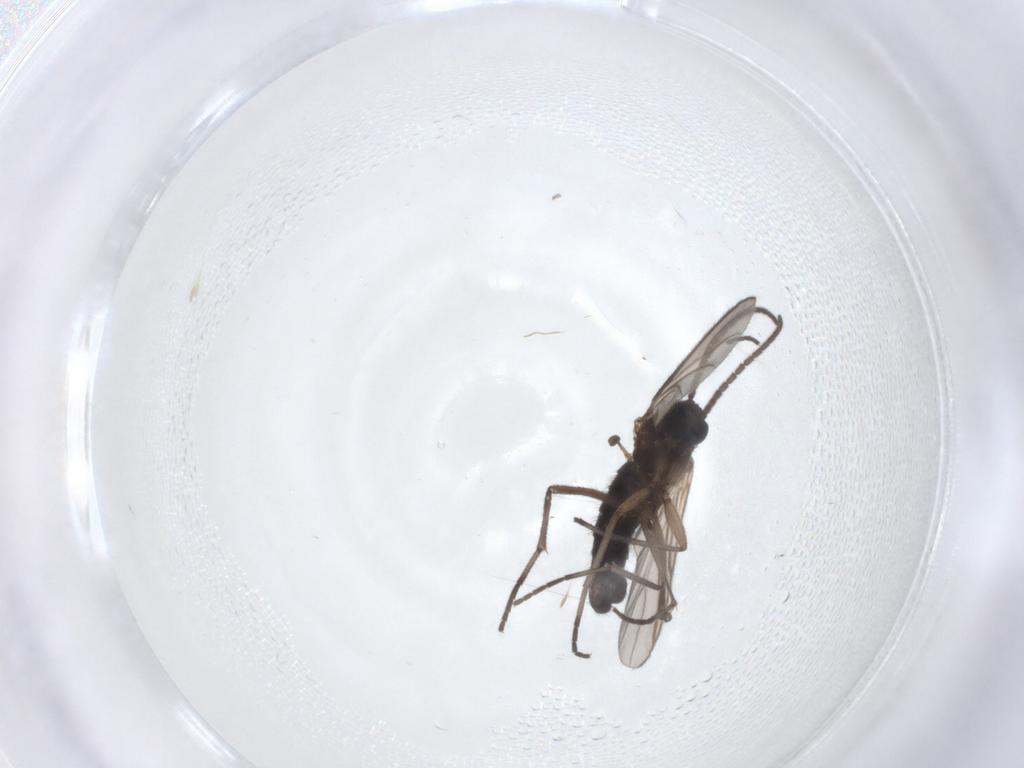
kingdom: Animalia
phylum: Arthropoda
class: Insecta
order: Diptera
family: Sciaridae
